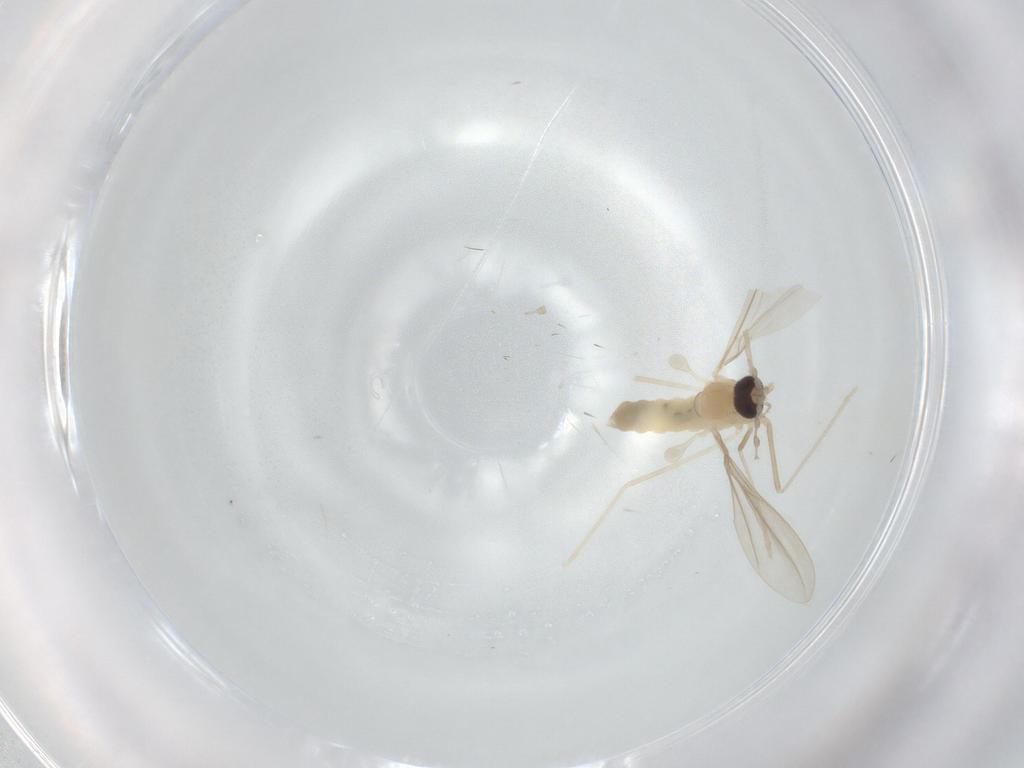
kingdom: Animalia
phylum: Arthropoda
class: Insecta
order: Diptera
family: Cecidomyiidae
